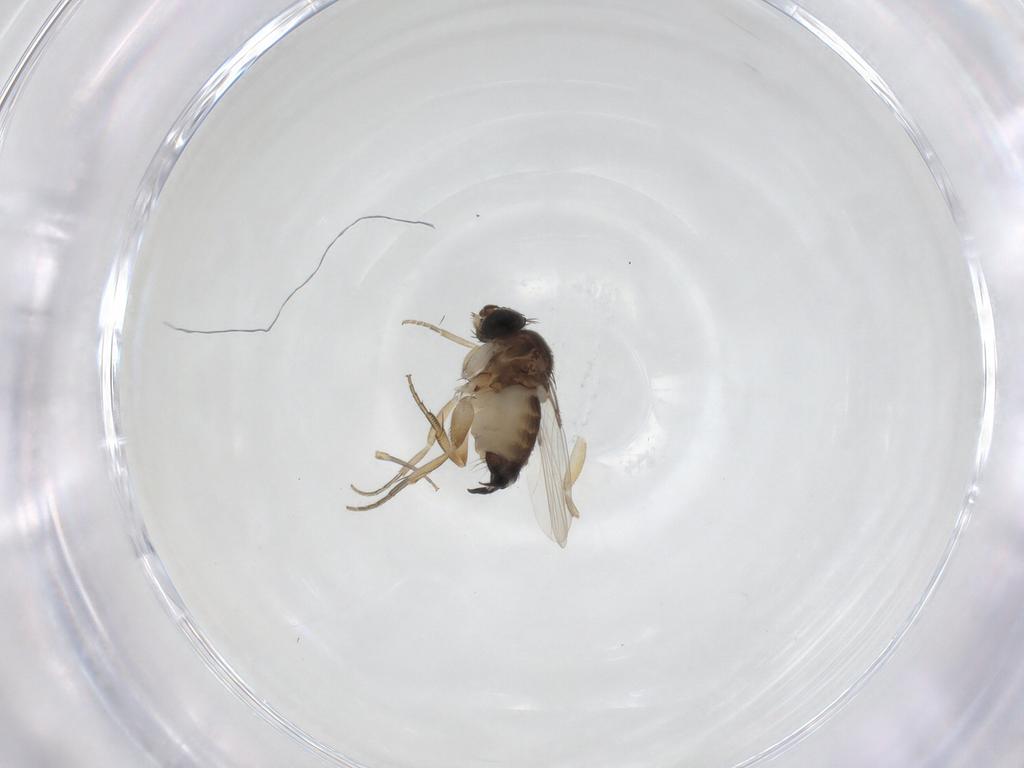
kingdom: Animalia
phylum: Arthropoda
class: Insecta
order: Diptera
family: Phoridae
